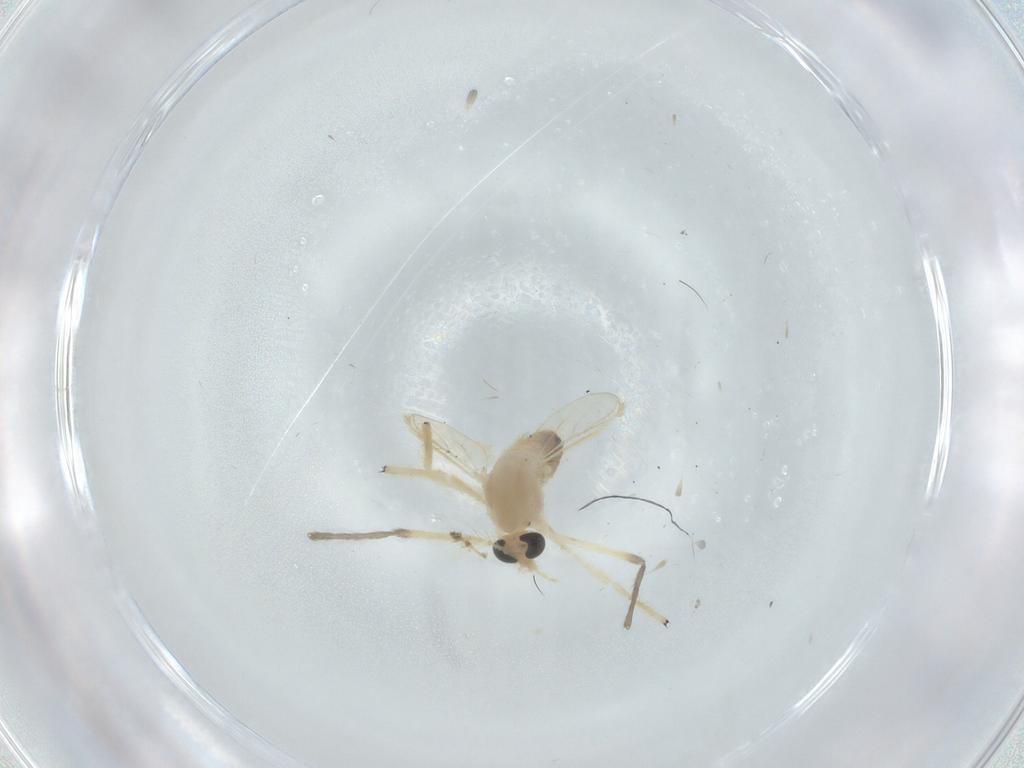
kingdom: Animalia
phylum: Arthropoda
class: Insecta
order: Diptera
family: Chironomidae
